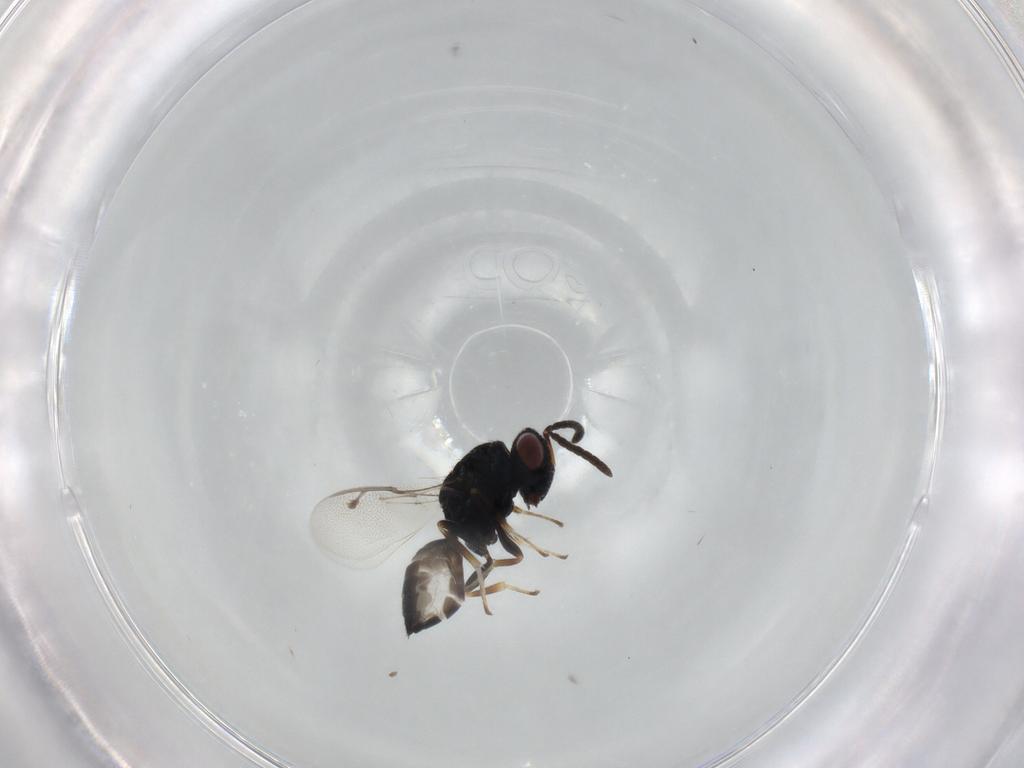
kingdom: Animalia
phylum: Arthropoda
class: Insecta
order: Hymenoptera
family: Pteromalidae
